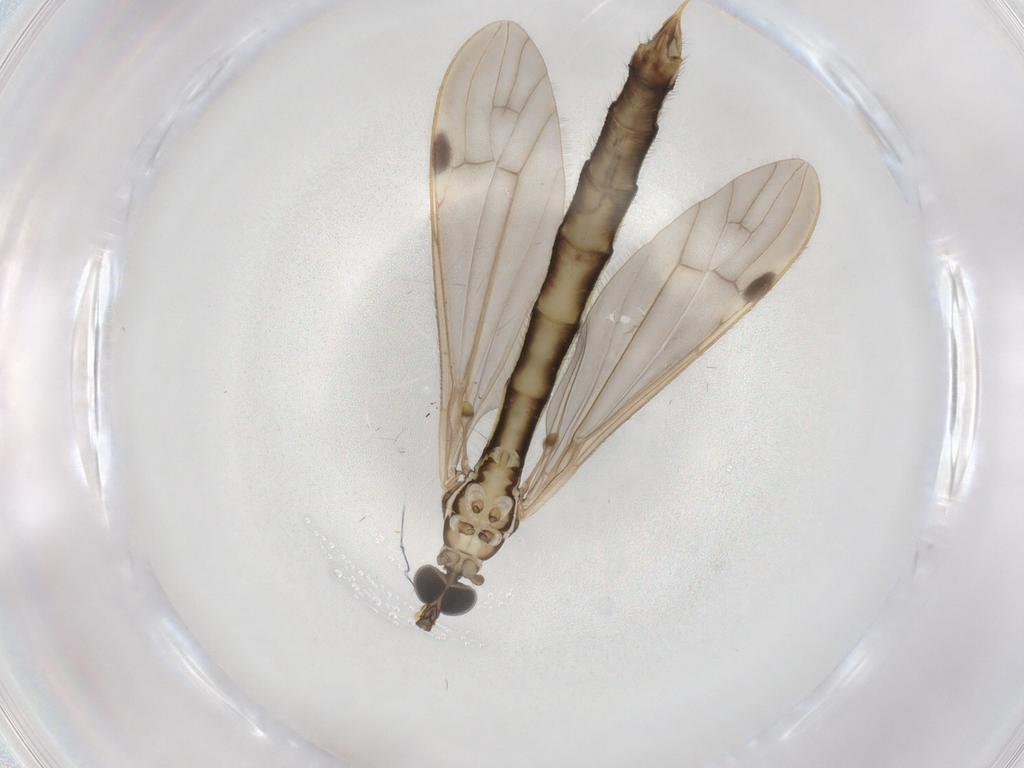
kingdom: Animalia
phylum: Arthropoda
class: Insecta
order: Diptera
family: Limoniidae
